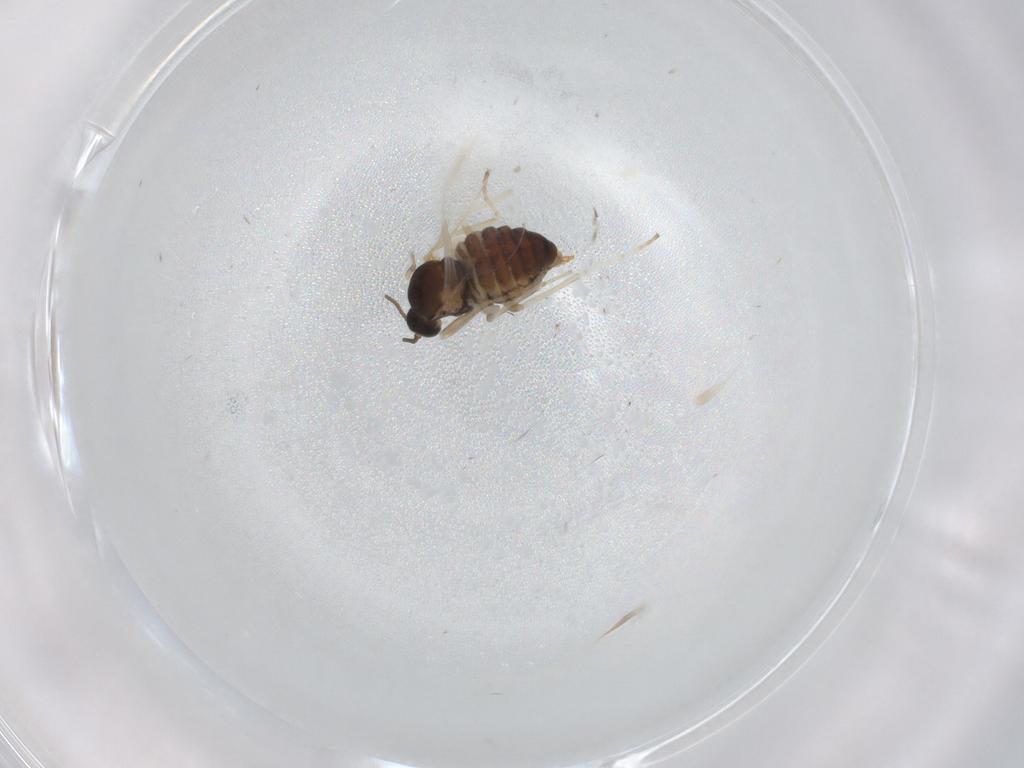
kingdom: Animalia
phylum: Arthropoda
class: Insecta
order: Diptera
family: Cecidomyiidae
